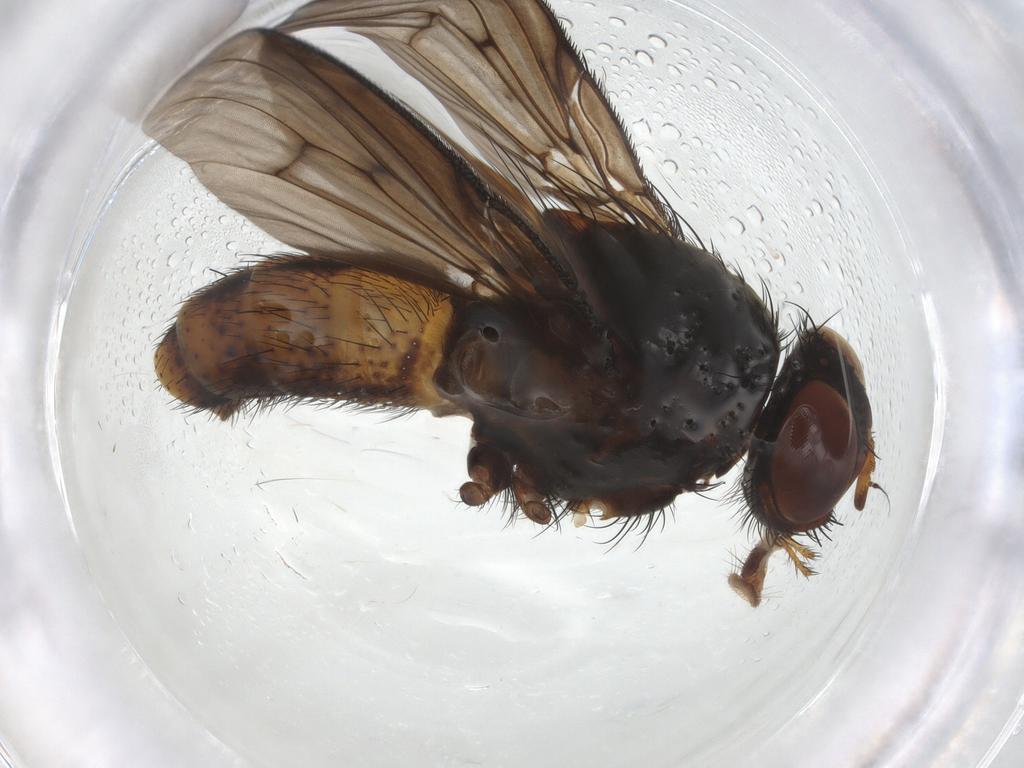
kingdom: Animalia
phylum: Arthropoda
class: Insecta
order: Diptera
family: Muscidae
